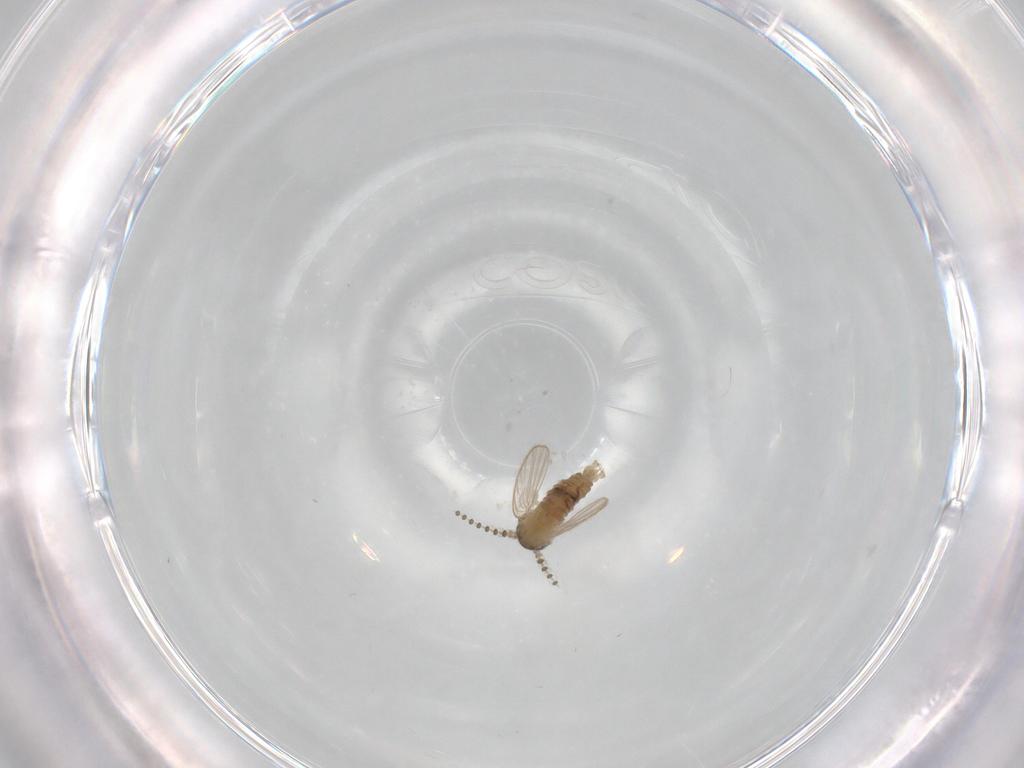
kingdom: Animalia
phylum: Arthropoda
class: Insecta
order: Diptera
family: Psychodidae
